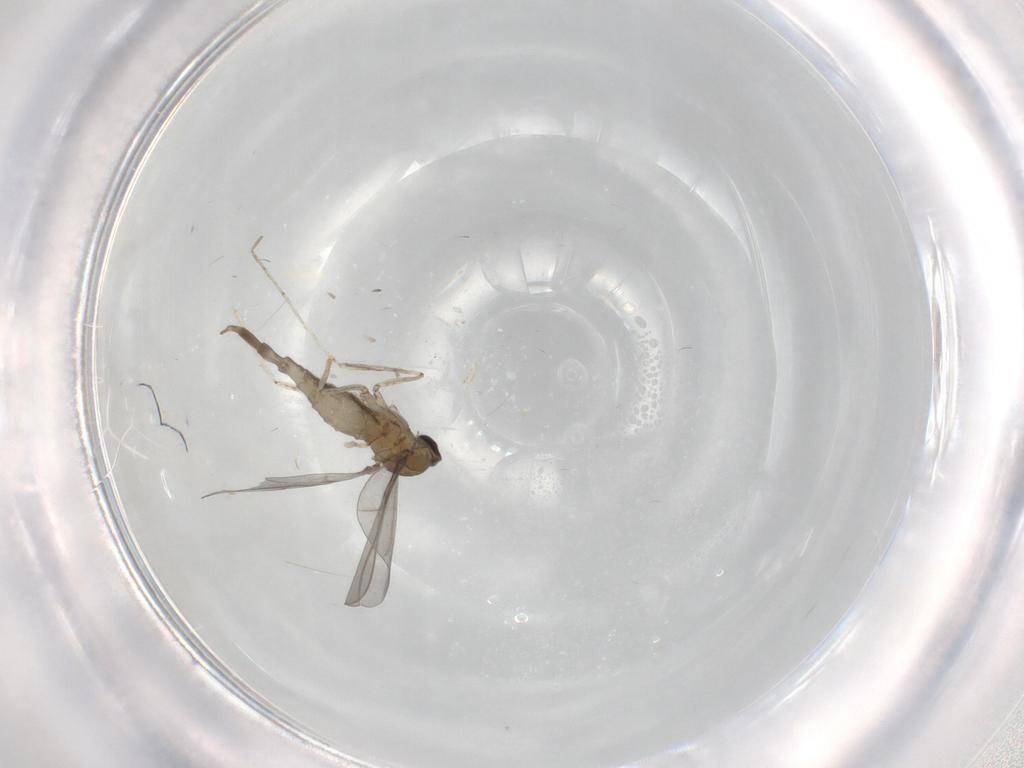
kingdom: Animalia
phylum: Arthropoda
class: Insecta
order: Diptera
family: Cecidomyiidae
